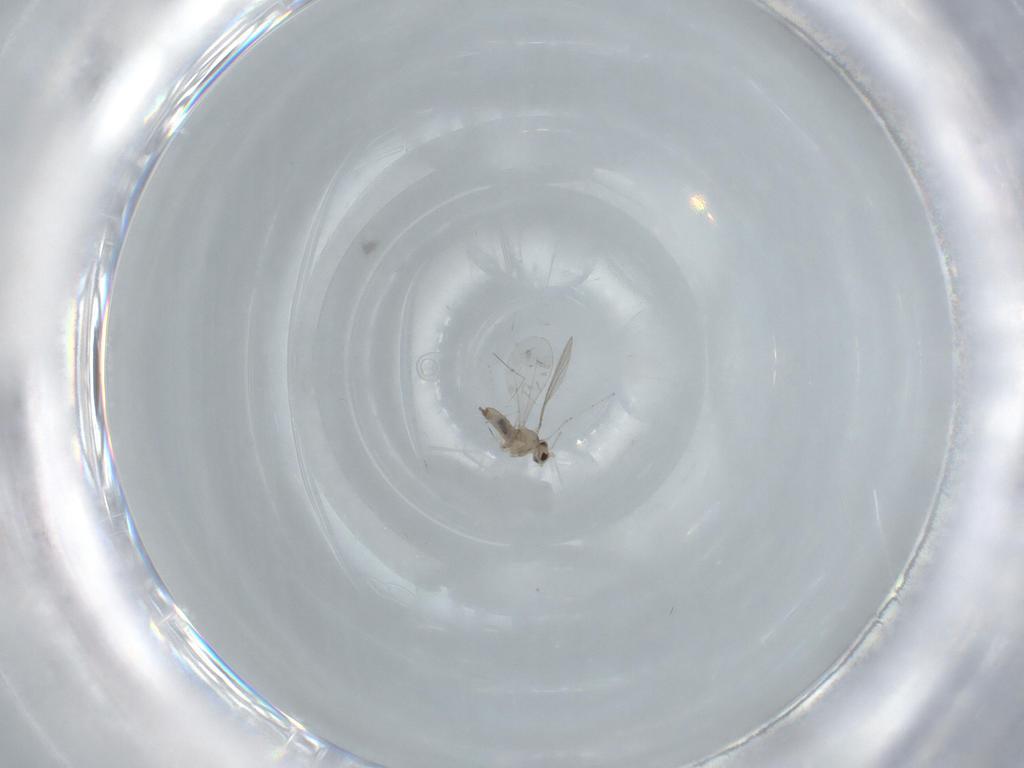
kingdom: Animalia
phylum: Arthropoda
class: Insecta
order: Diptera
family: Cecidomyiidae
